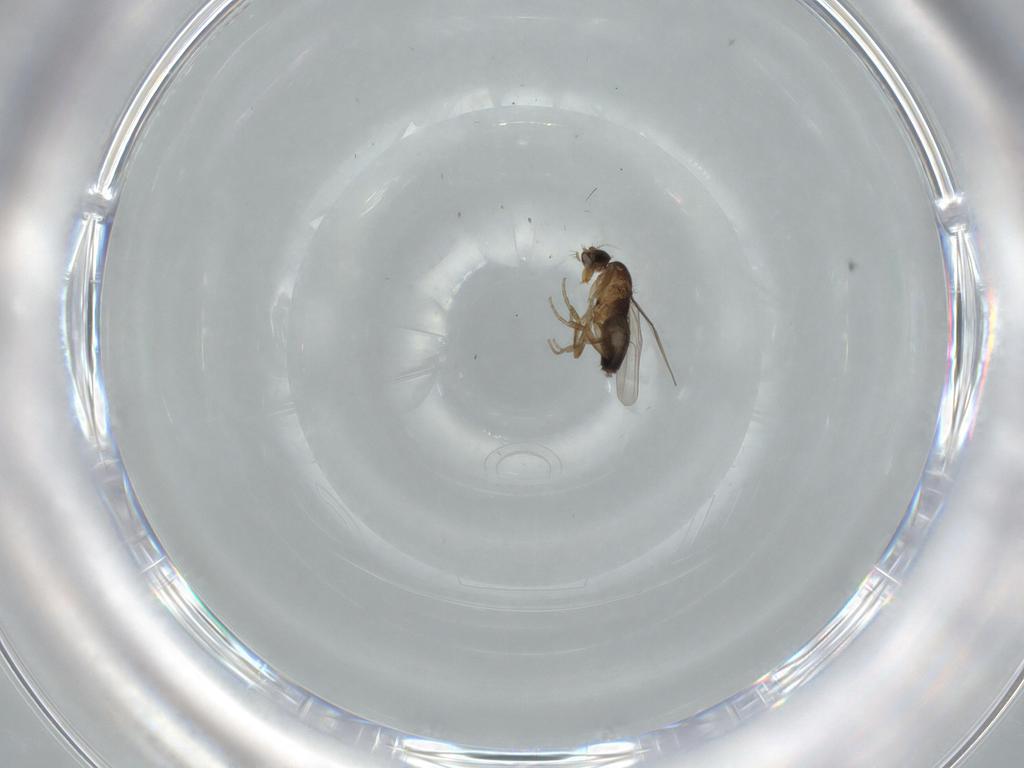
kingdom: Animalia
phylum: Arthropoda
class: Insecta
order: Diptera
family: Phoridae
